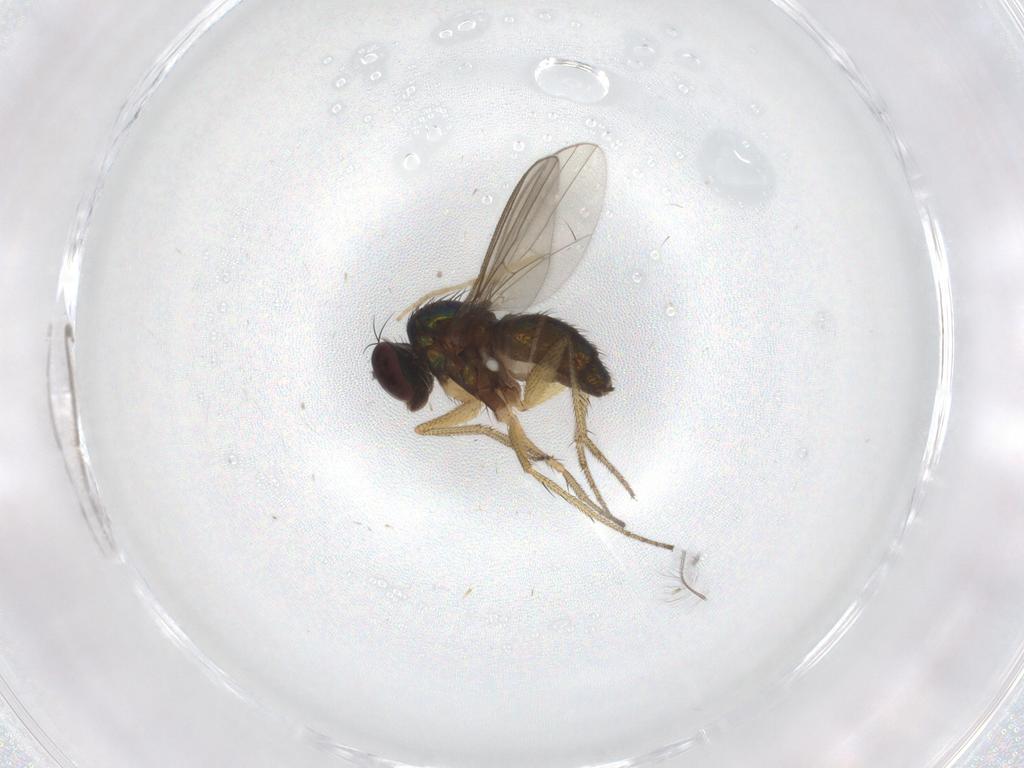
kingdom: Animalia
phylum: Arthropoda
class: Insecta
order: Diptera
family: Sciaridae
